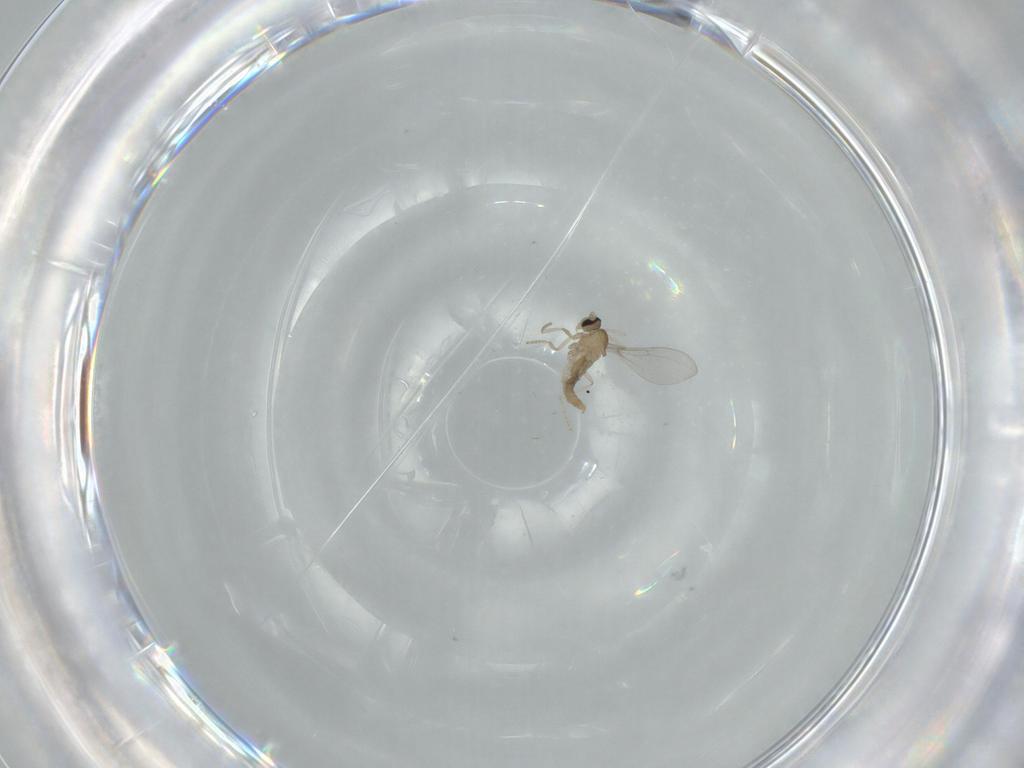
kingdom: Animalia
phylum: Arthropoda
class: Insecta
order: Diptera
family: Cecidomyiidae
